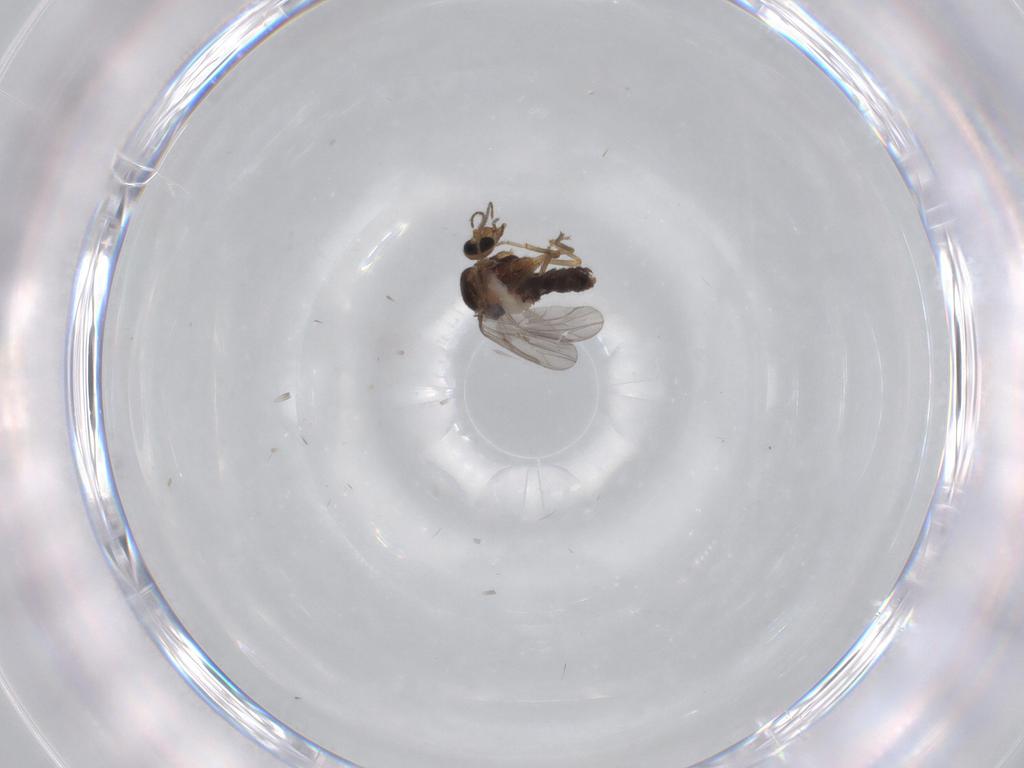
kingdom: Animalia
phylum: Arthropoda
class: Insecta
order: Diptera
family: Ceratopogonidae
